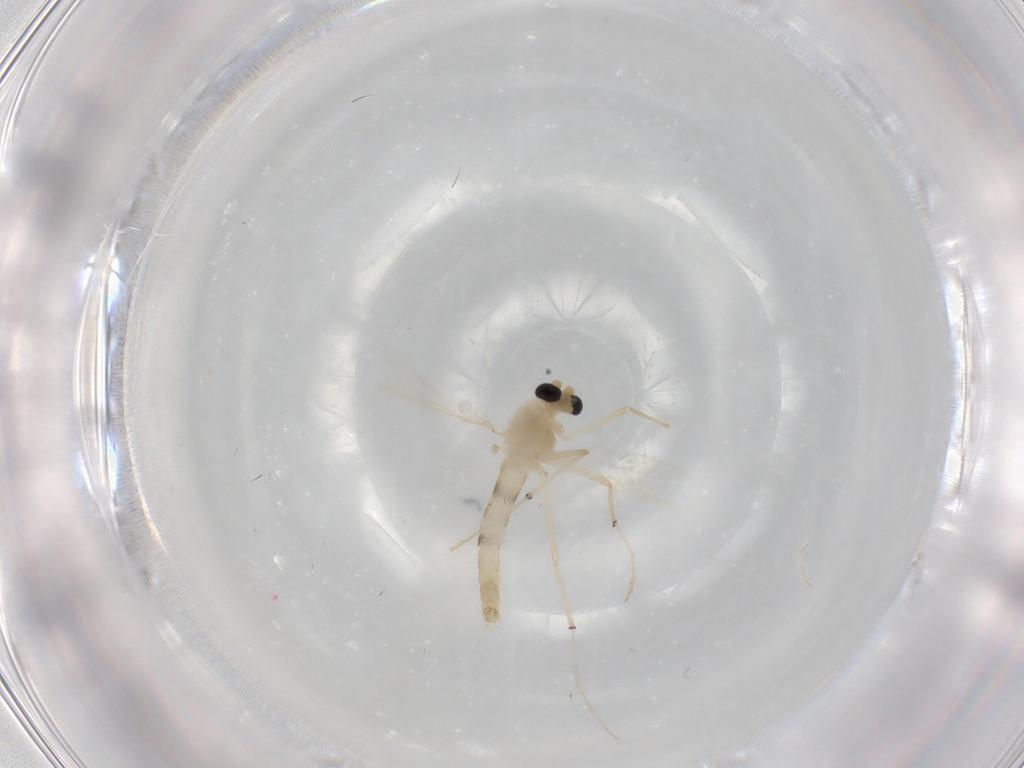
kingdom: Animalia
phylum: Arthropoda
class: Insecta
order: Diptera
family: Chironomidae
